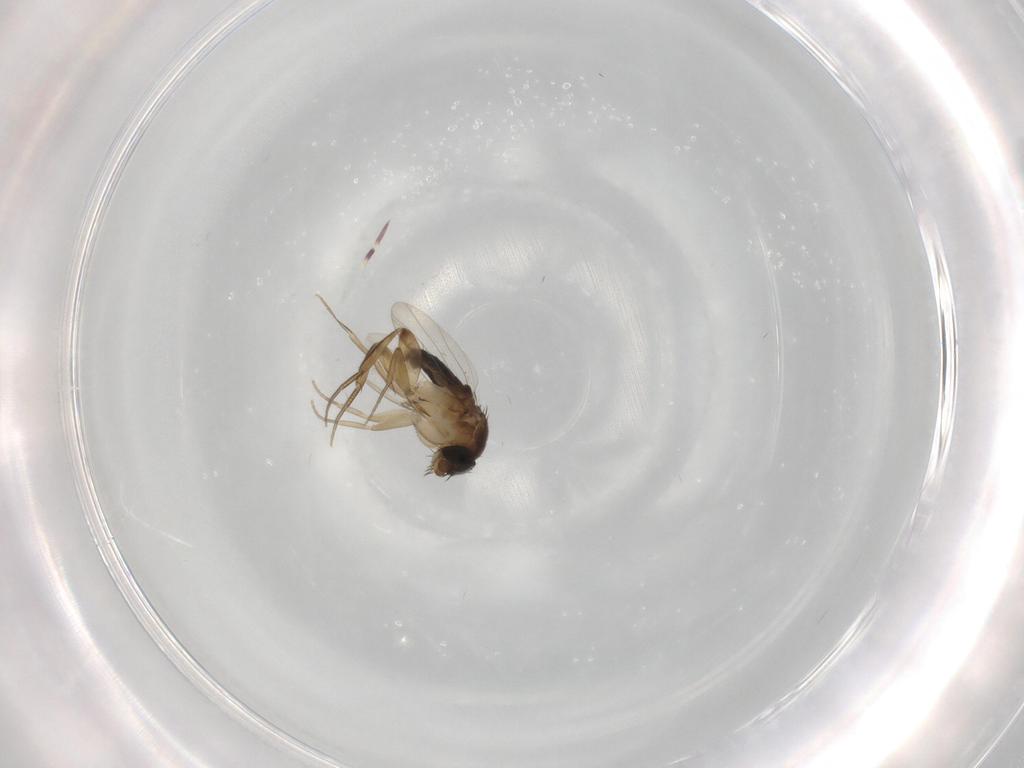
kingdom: Animalia
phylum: Arthropoda
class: Insecta
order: Diptera
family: Phoridae
